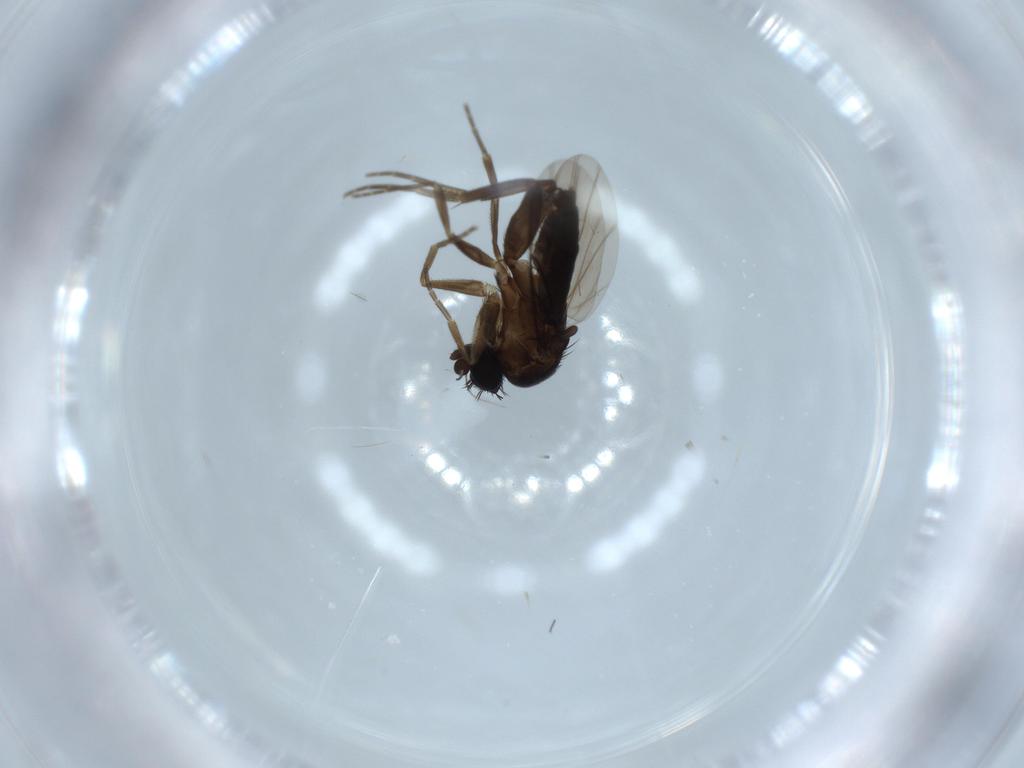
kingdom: Animalia
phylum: Arthropoda
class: Insecta
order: Diptera
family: Phoridae
